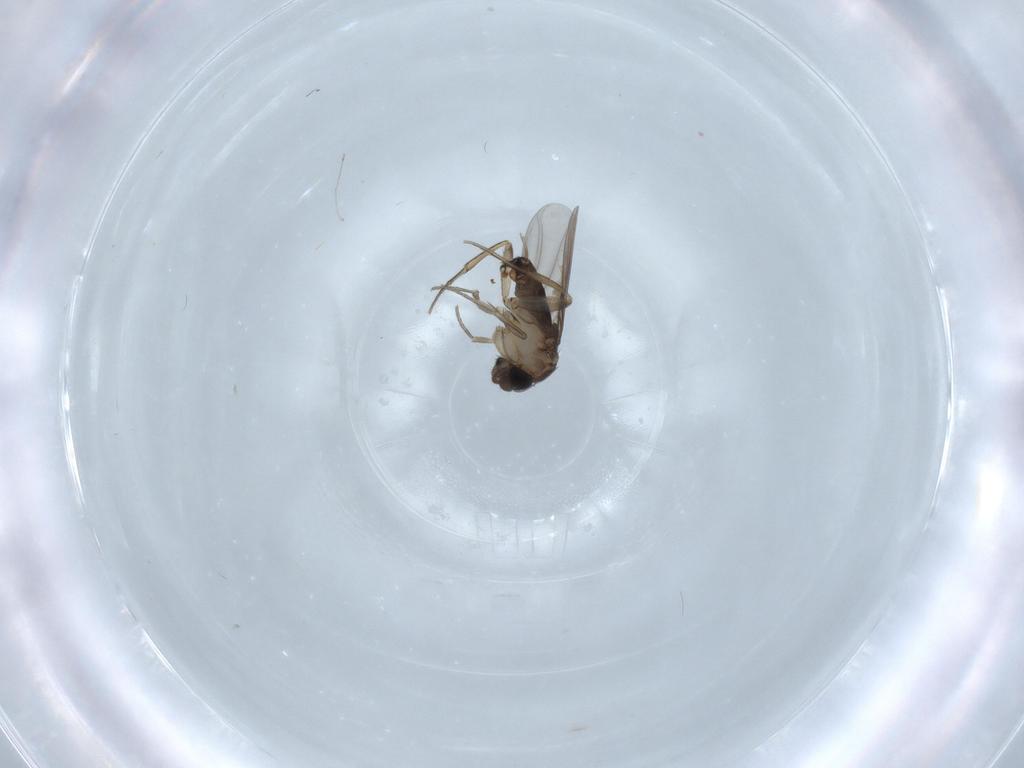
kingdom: Animalia
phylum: Arthropoda
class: Insecta
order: Diptera
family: Phoridae
